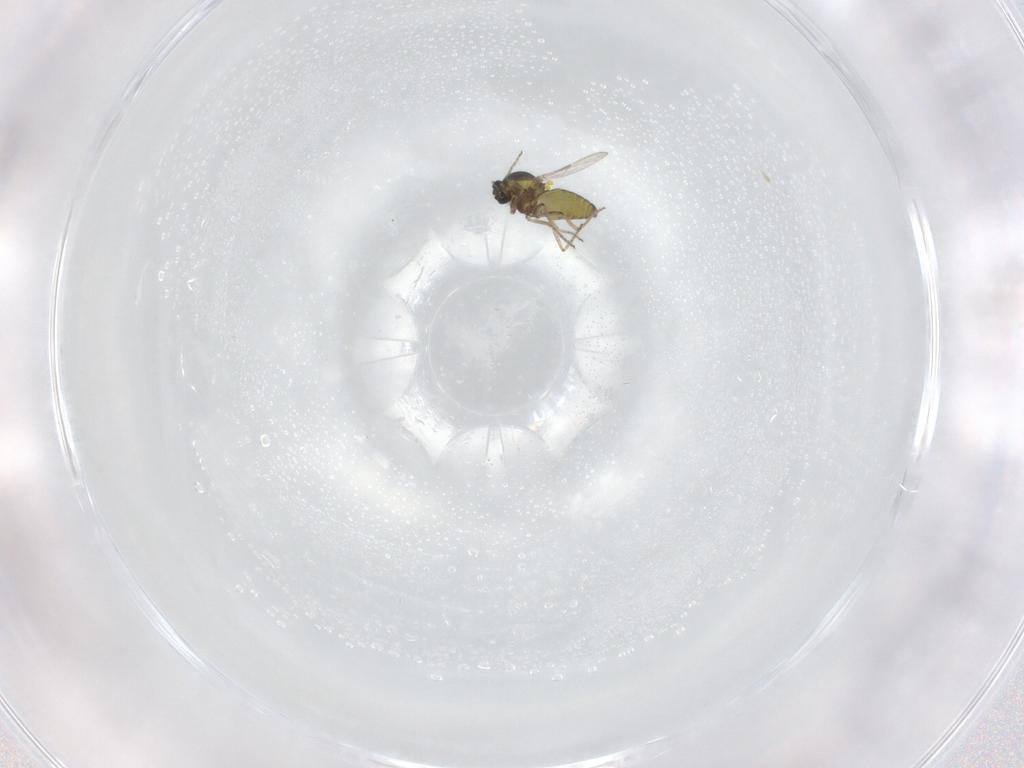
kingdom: Animalia
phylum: Arthropoda
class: Insecta
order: Diptera
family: Ceratopogonidae
